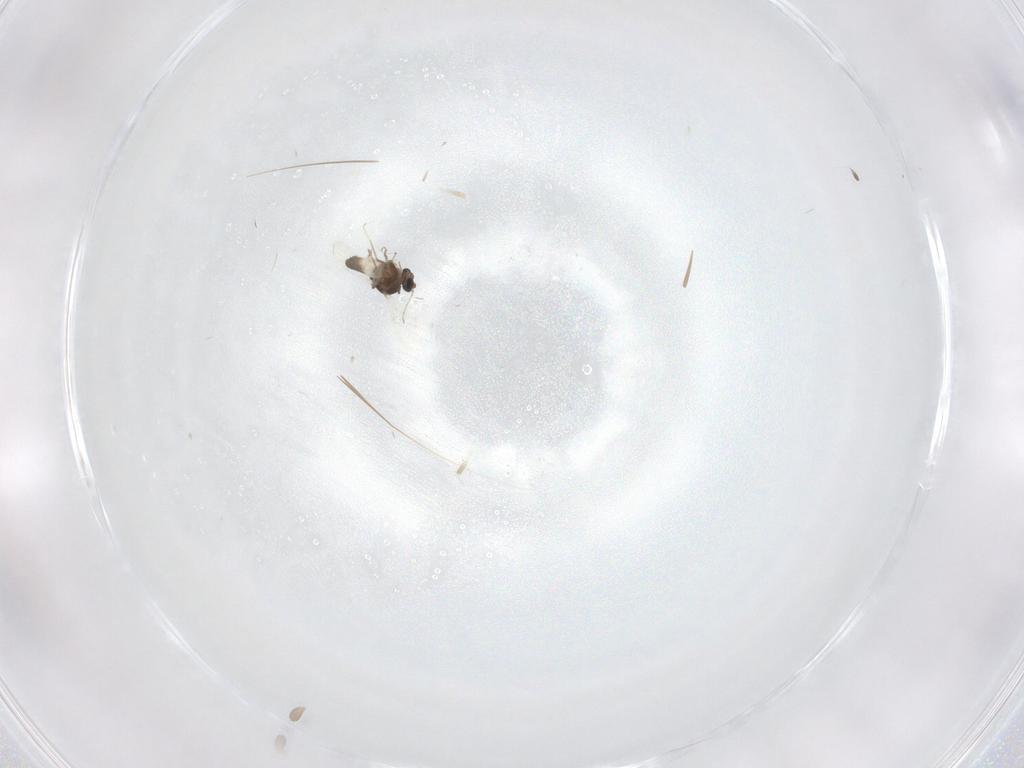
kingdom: Animalia
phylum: Arthropoda
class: Insecta
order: Diptera
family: Ceratopogonidae
